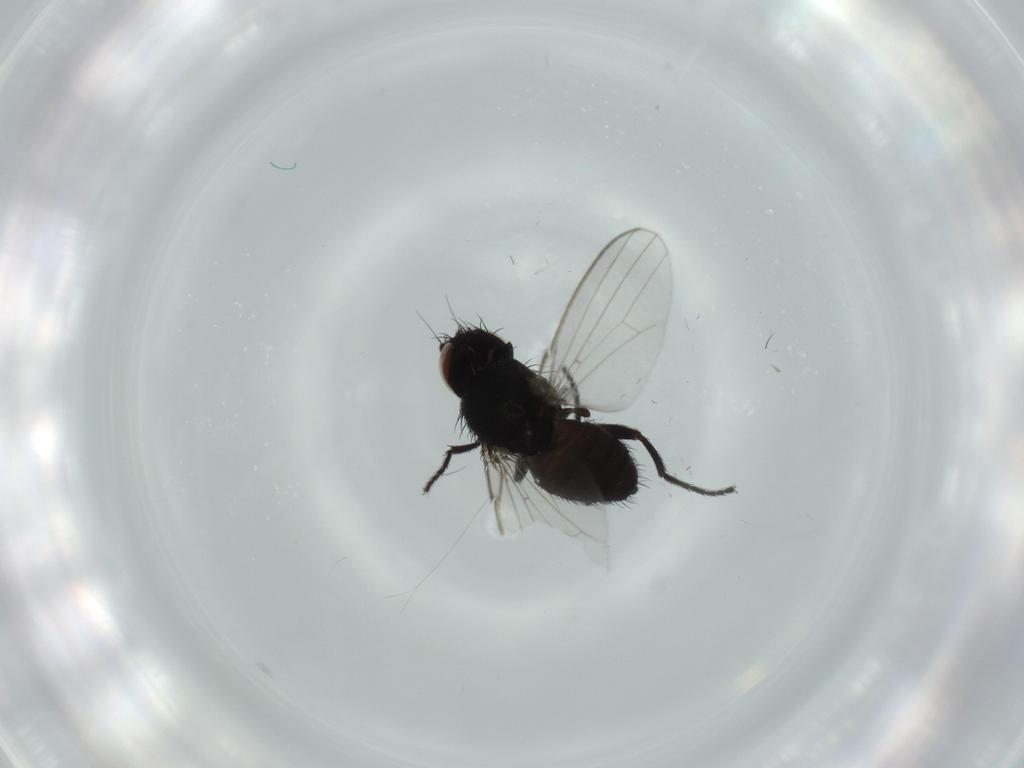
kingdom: Animalia
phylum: Arthropoda
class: Insecta
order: Diptera
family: Milichiidae
